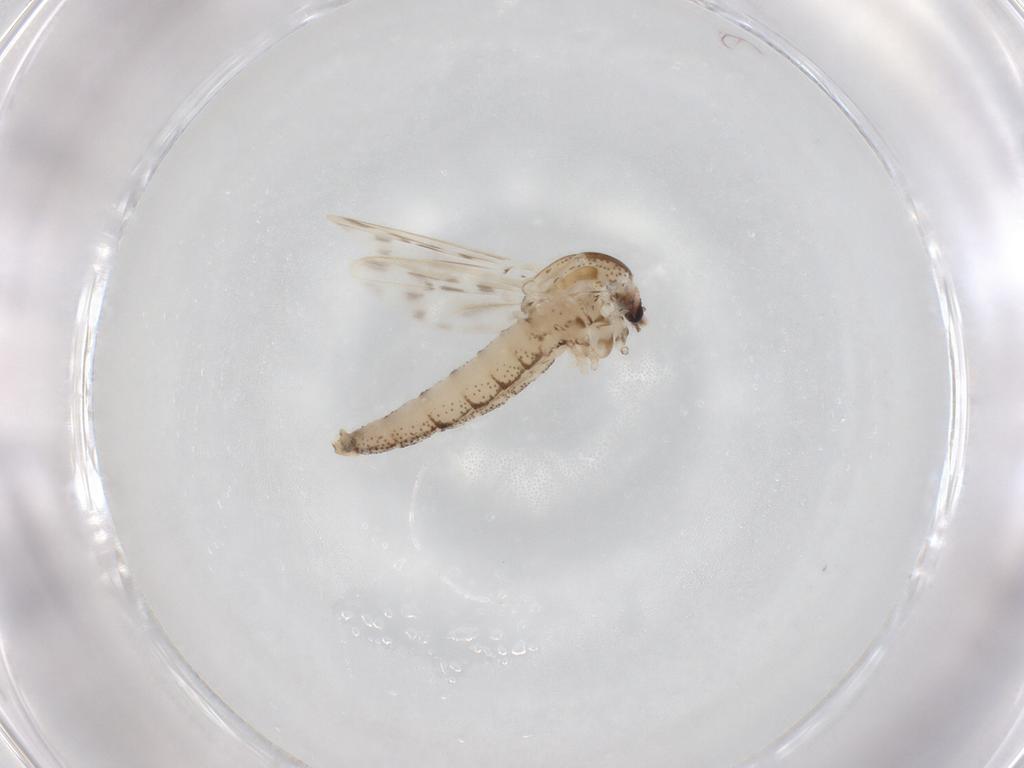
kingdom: Animalia
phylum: Arthropoda
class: Insecta
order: Diptera
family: Chaoboridae
